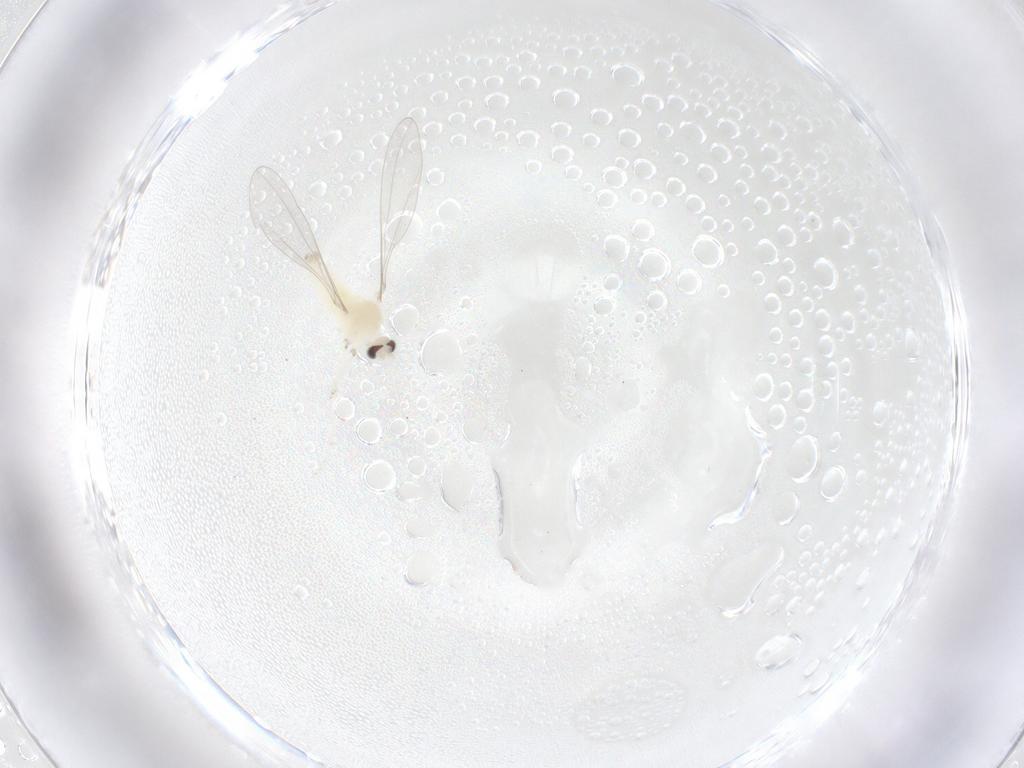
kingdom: Animalia
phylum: Arthropoda
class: Insecta
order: Diptera
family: Cecidomyiidae
